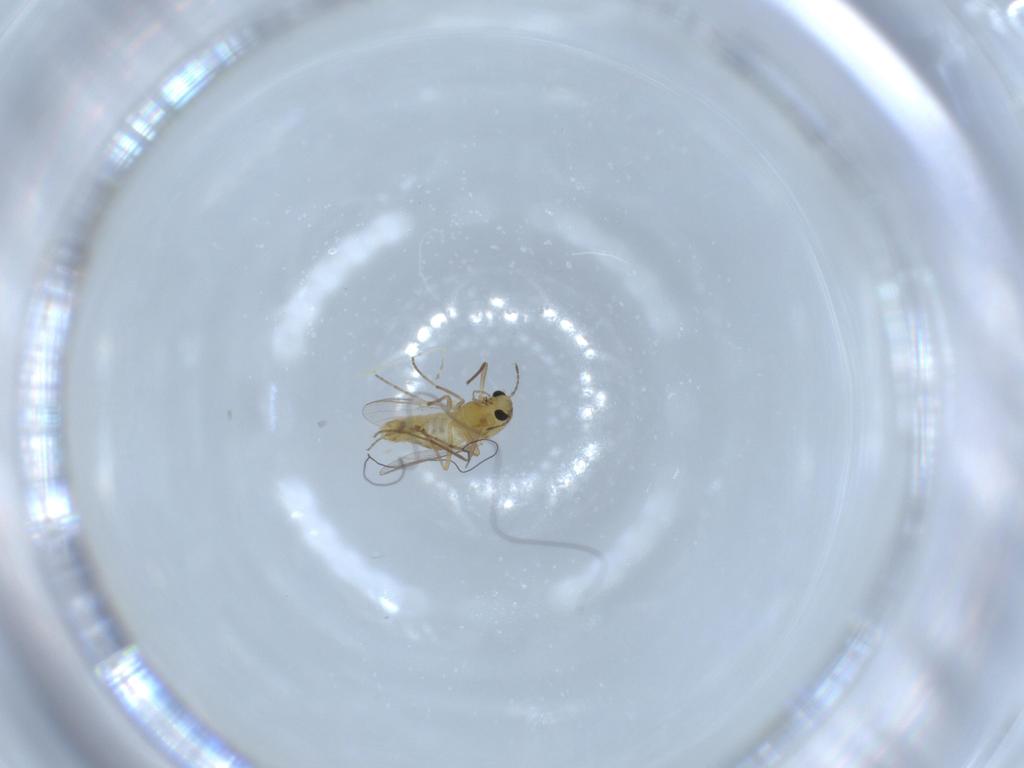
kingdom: Animalia
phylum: Arthropoda
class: Insecta
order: Diptera
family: Chironomidae
